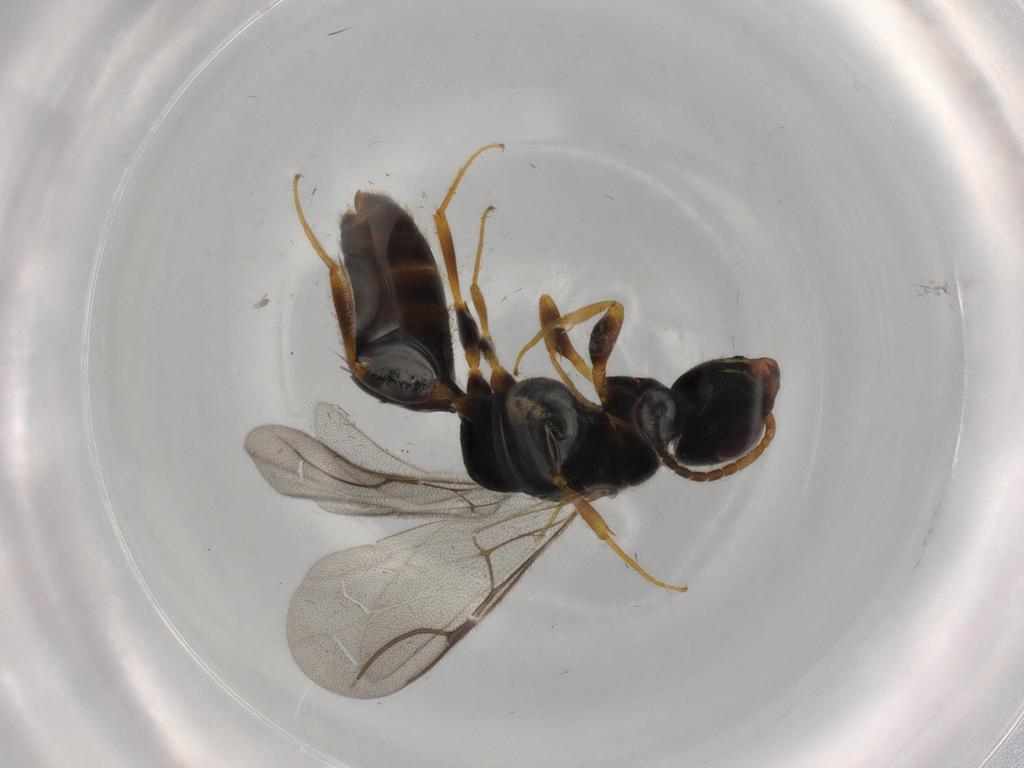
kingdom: Animalia
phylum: Arthropoda
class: Insecta
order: Hymenoptera
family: Bethylidae
